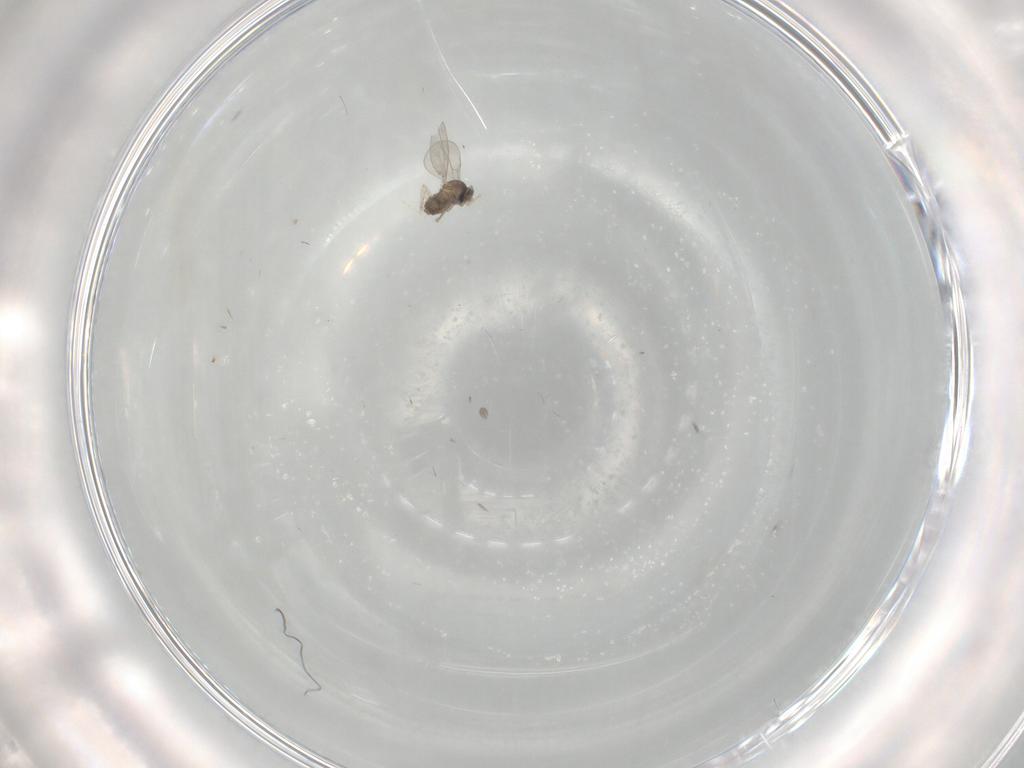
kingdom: Animalia
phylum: Arthropoda
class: Insecta
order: Diptera
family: Cecidomyiidae
